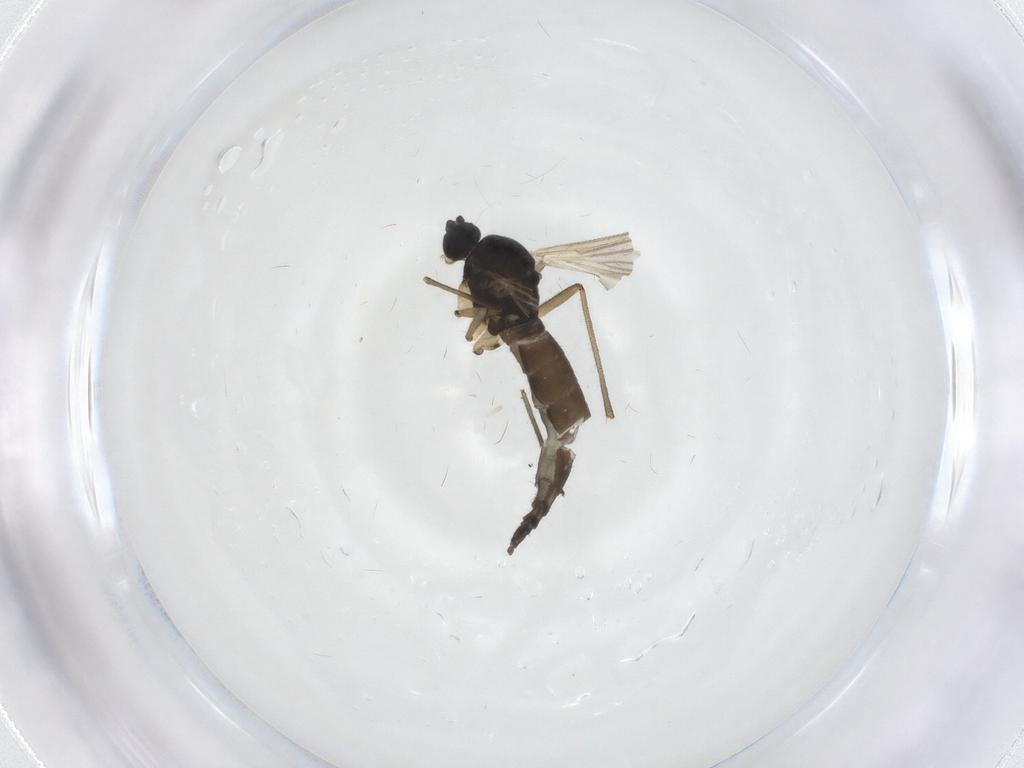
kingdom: Animalia
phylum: Arthropoda
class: Insecta
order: Diptera
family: Sciaridae
